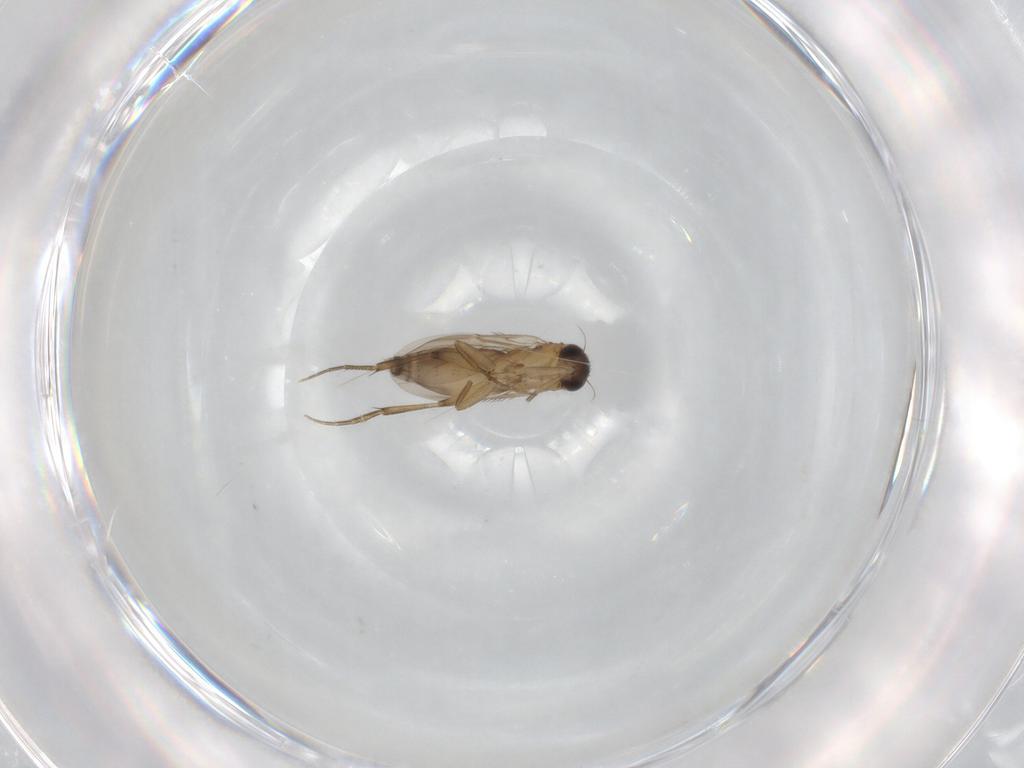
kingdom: Animalia
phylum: Arthropoda
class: Insecta
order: Diptera
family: Phoridae
